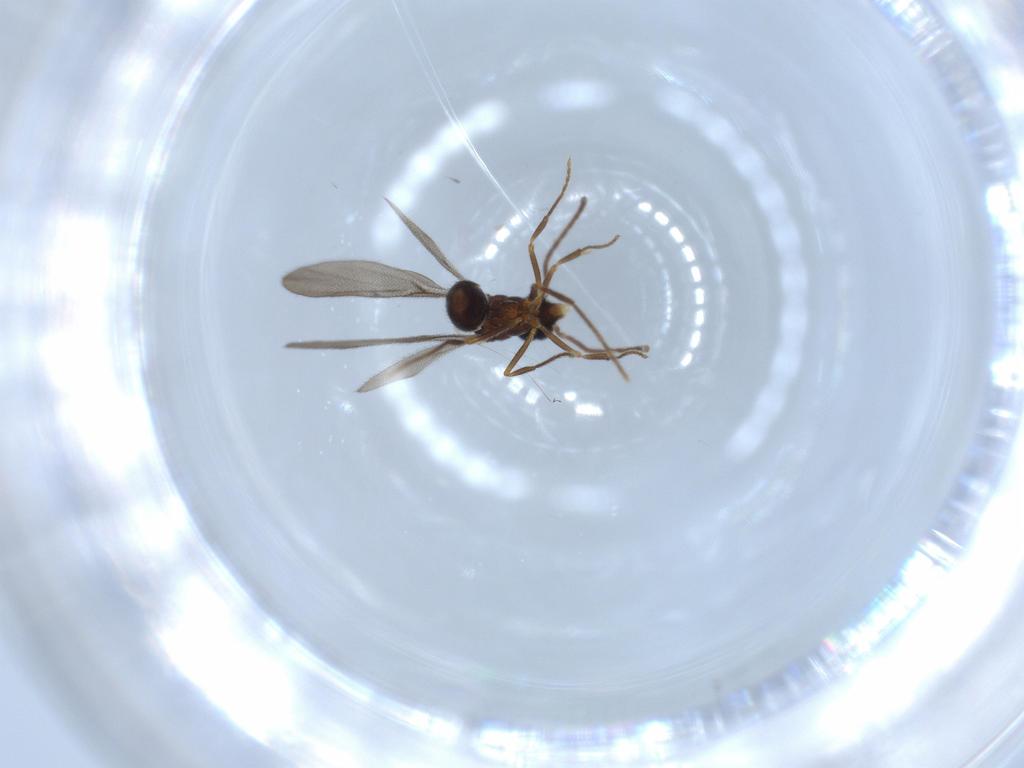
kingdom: Animalia
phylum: Arthropoda
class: Insecta
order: Hymenoptera
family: Formicidae
